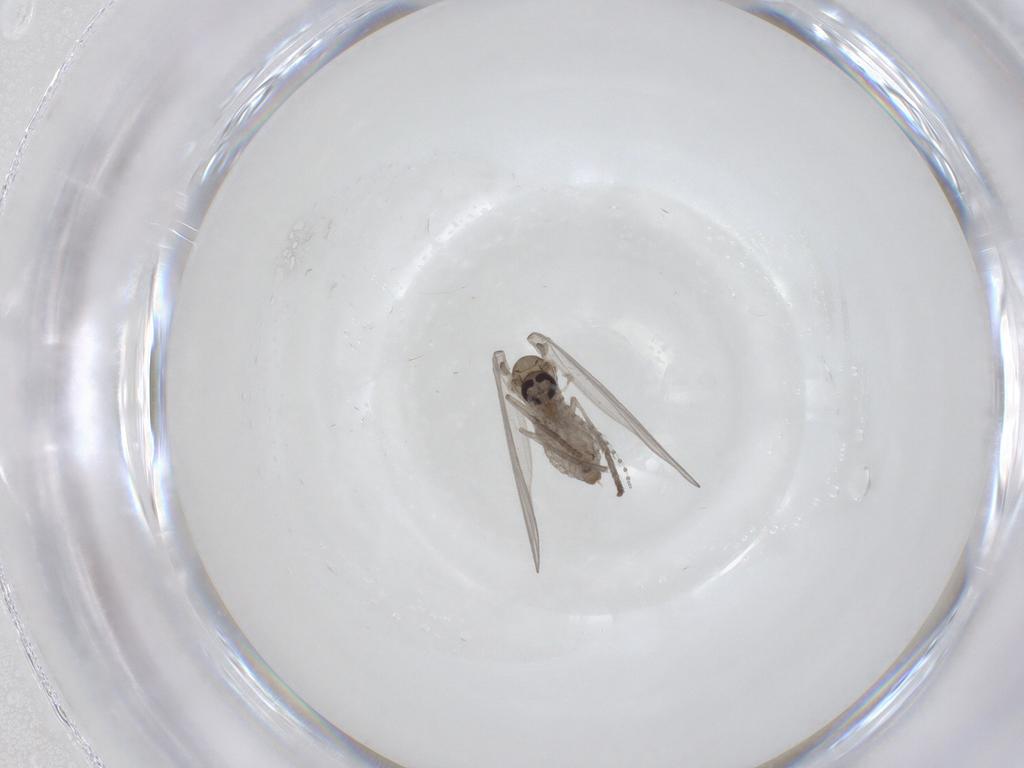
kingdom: Animalia
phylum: Arthropoda
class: Insecta
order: Diptera
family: Psychodidae
